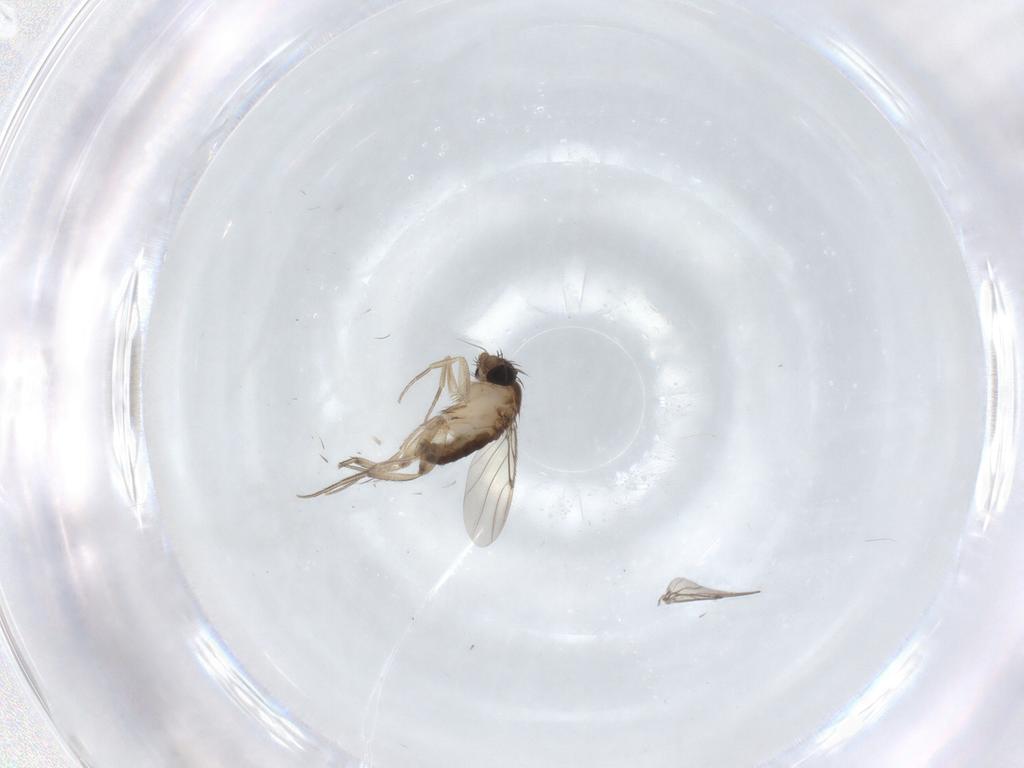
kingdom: Animalia
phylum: Arthropoda
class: Insecta
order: Diptera
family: Phoridae
